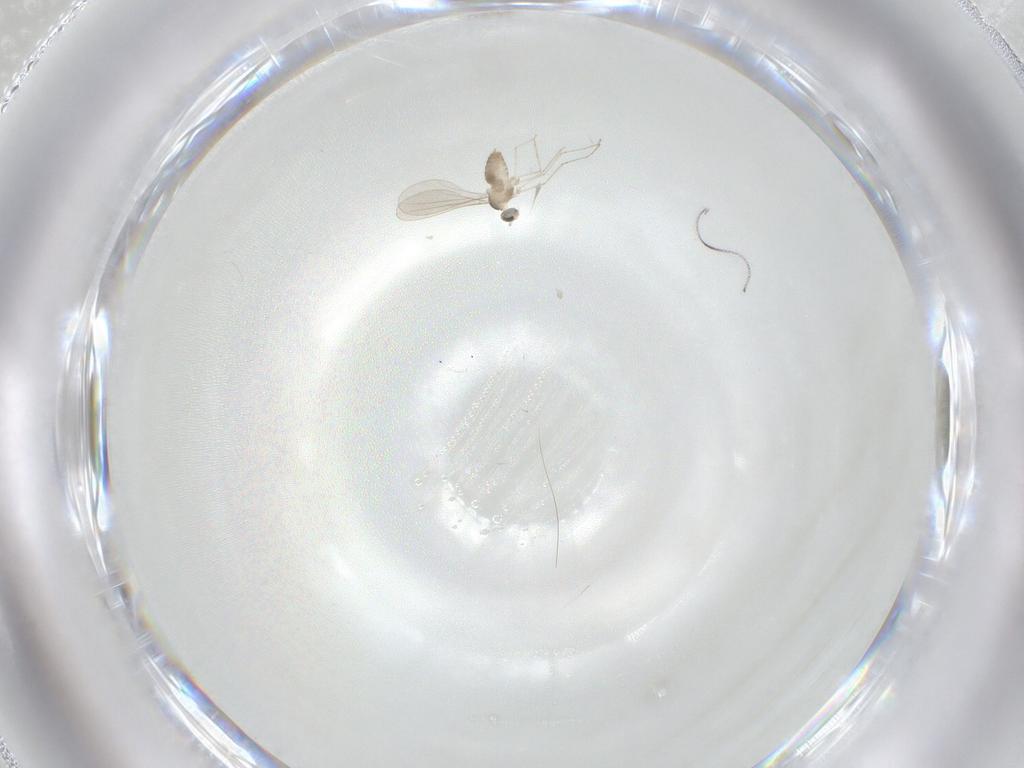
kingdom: Animalia
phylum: Arthropoda
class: Insecta
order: Diptera
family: Cecidomyiidae
